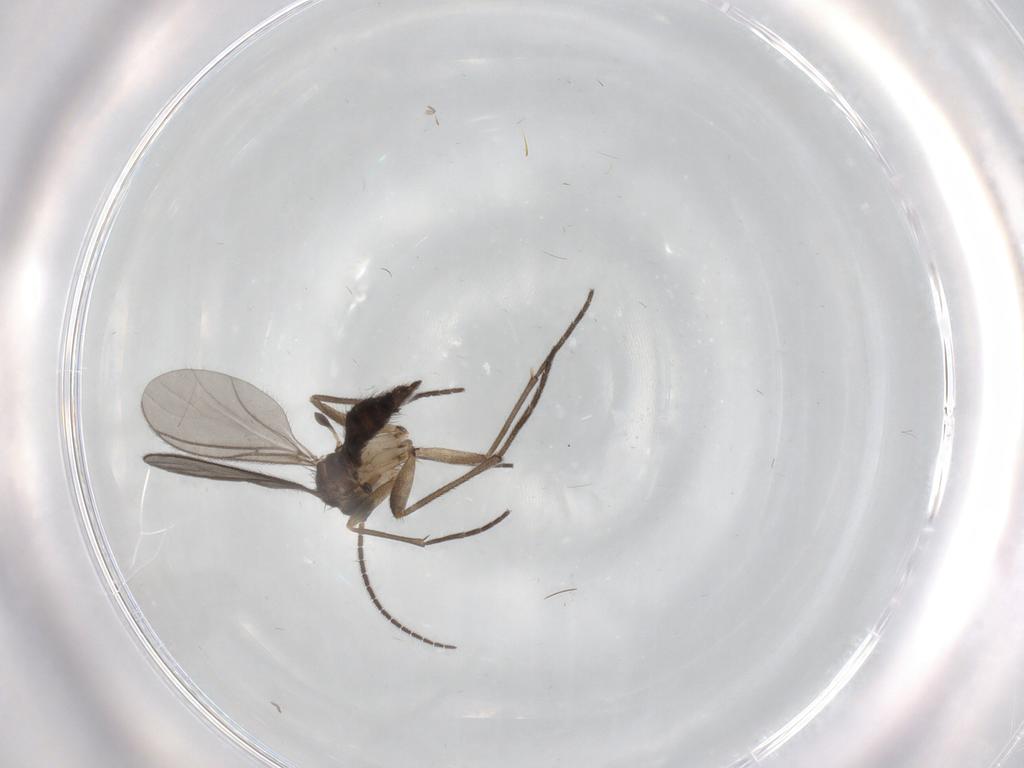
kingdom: Animalia
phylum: Arthropoda
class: Insecta
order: Diptera
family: Sciaridae
